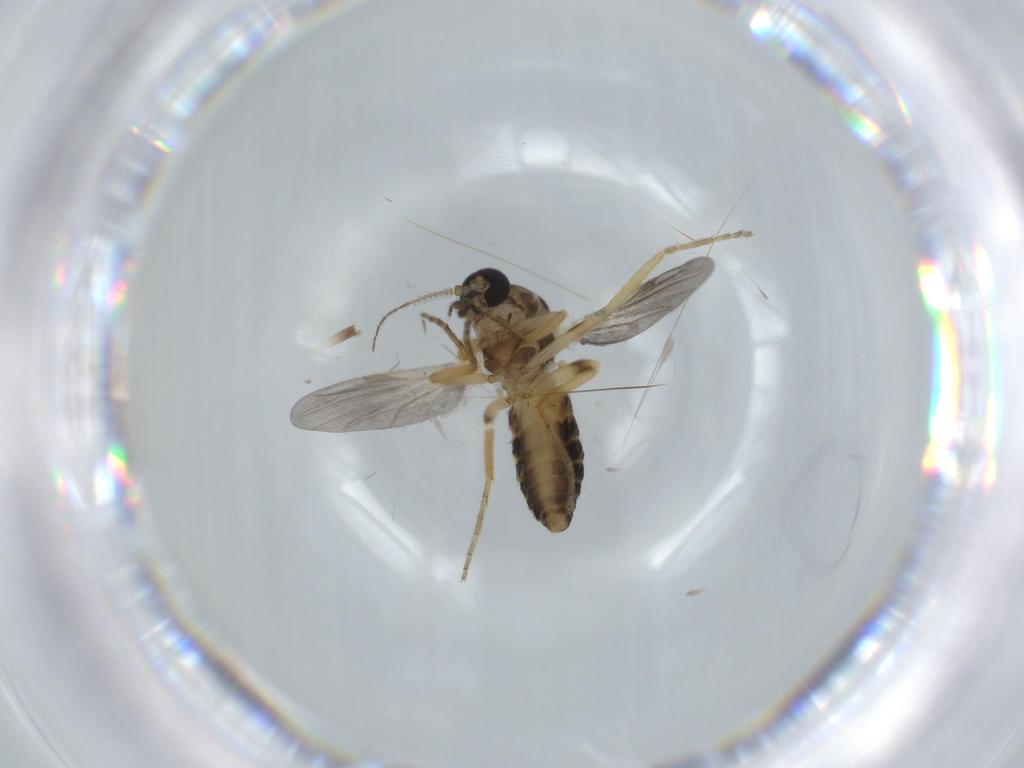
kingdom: Animalia
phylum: Arthropoda
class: Insecta
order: Diptera
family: Ceratopogonidae
